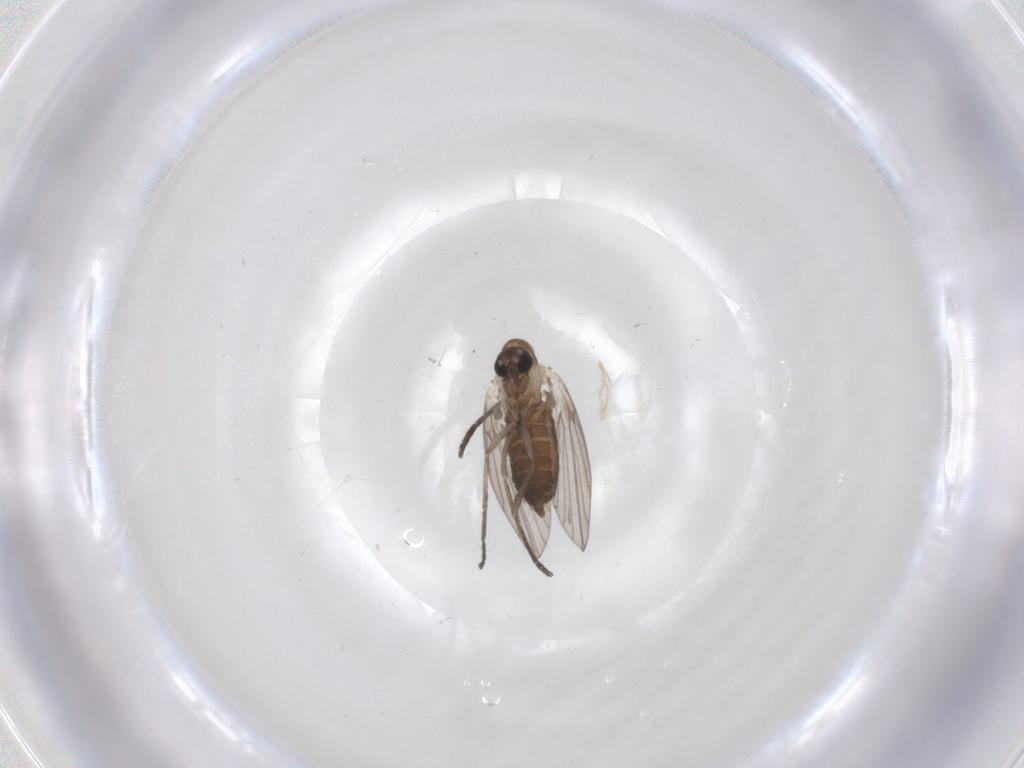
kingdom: Animalia
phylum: Arthropoda
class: Insecta
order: Diptera
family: Psychodidae
